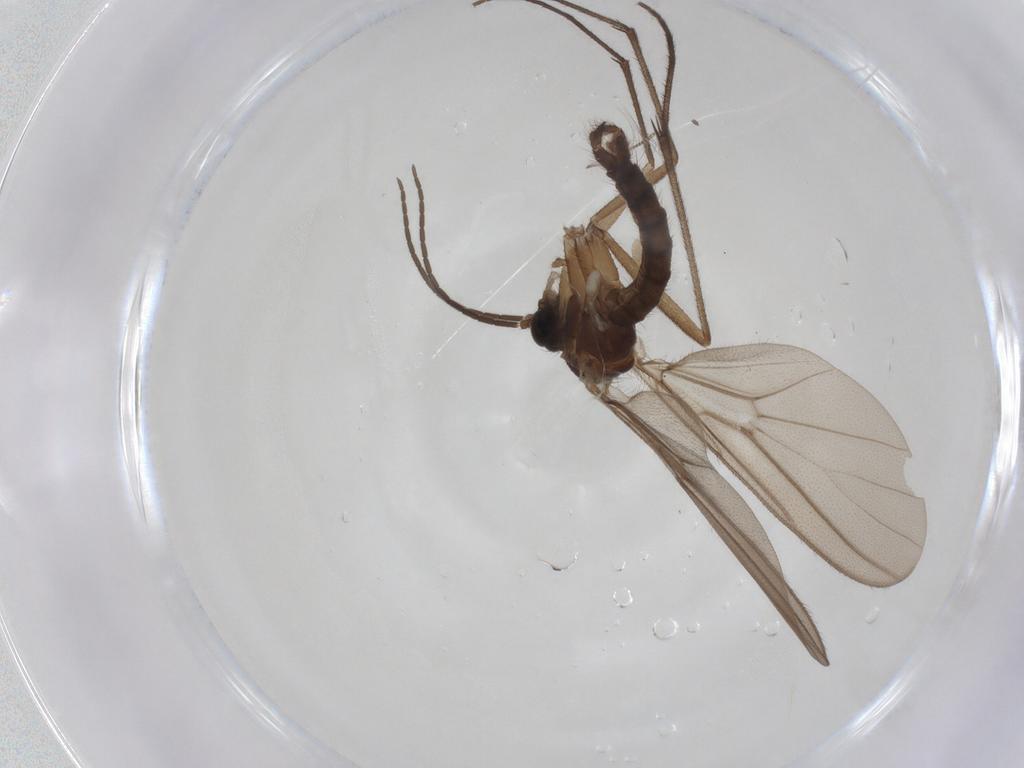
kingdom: Animalia
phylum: Arthropoda
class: Insecta
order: Diptera
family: Chironomidae
